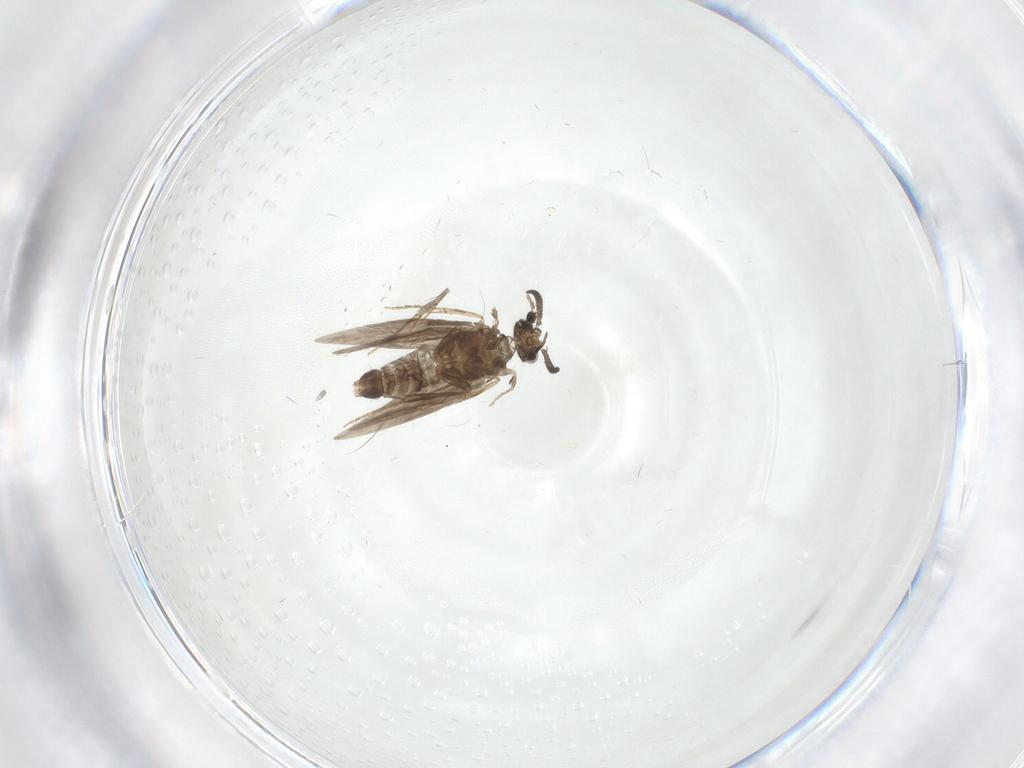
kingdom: Animalia
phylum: Arthropoda
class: Insecta
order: Trichoptera
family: Hydroptilidae
